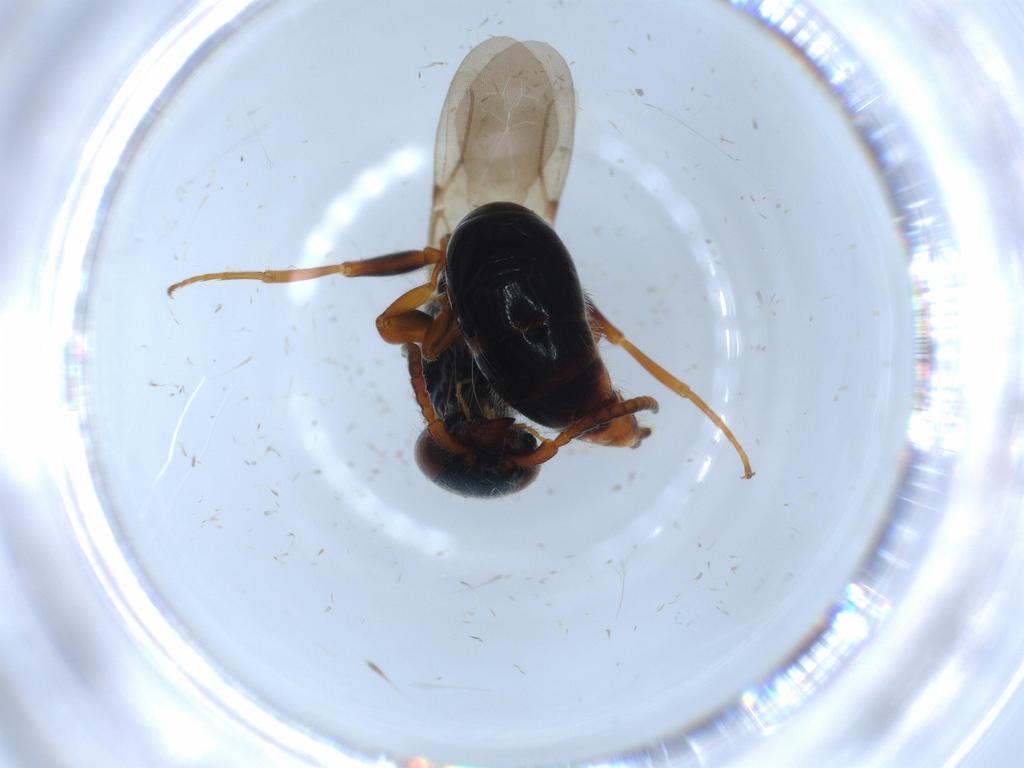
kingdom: Animalia
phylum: Arthropoda
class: Insecta
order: Hymenoptera
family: Bethylidae
